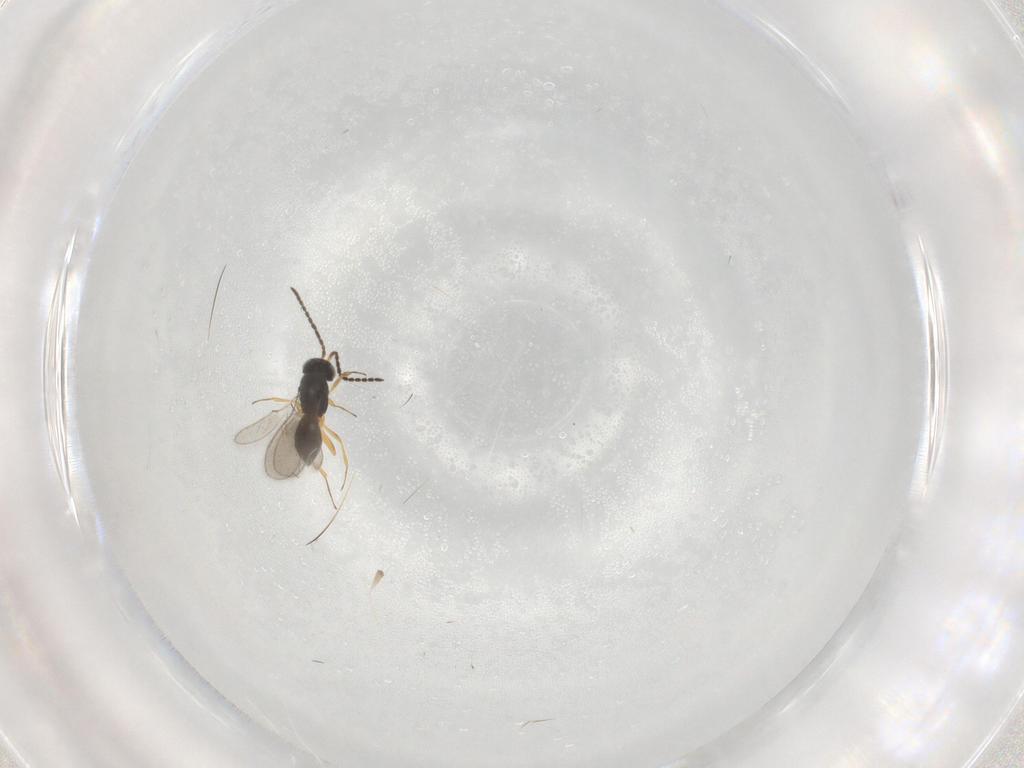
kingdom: Animalia
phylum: Arthropoda
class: Insecta
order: Hymenoptera
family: Scelionidae
